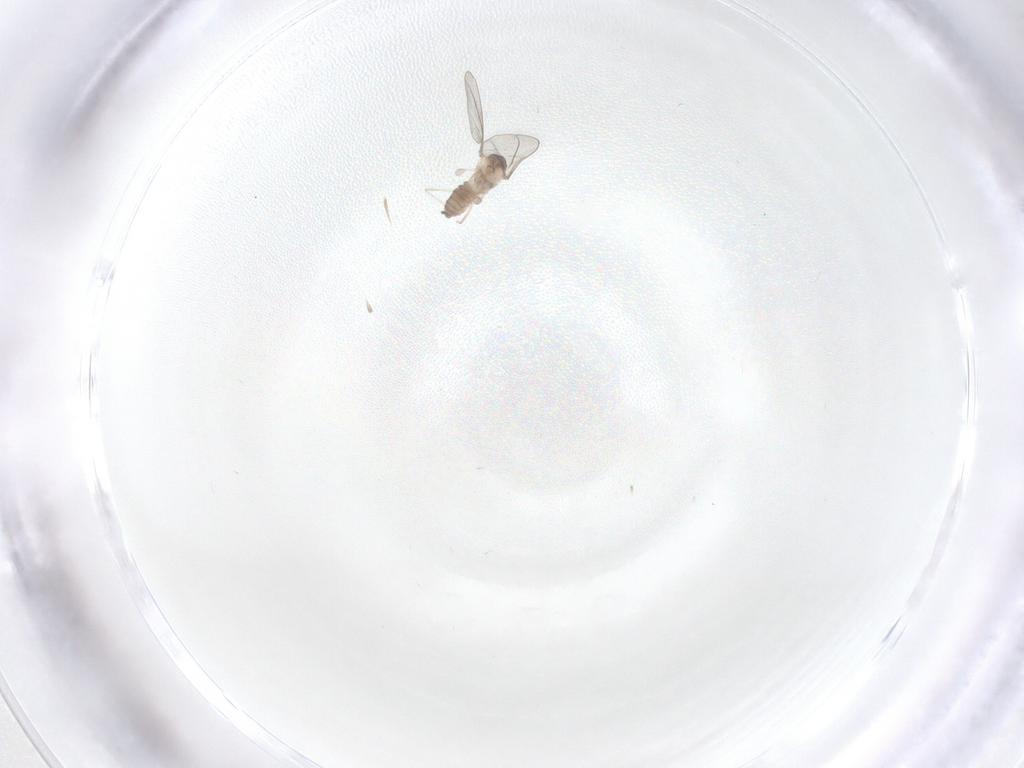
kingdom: Animalia
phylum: Arthropoda
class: Insecta
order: Diptera
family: Cecidomyiidae
